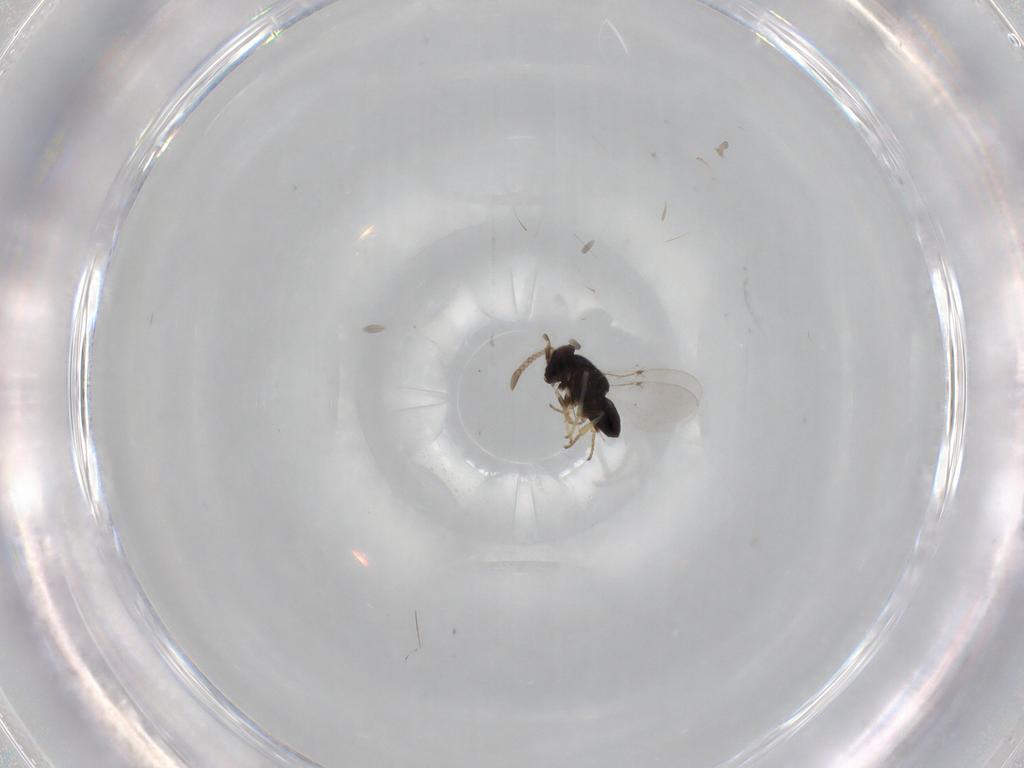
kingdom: Animalia
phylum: Arthropoda
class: Insecta
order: Hymenoptera
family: Encyrtidae
